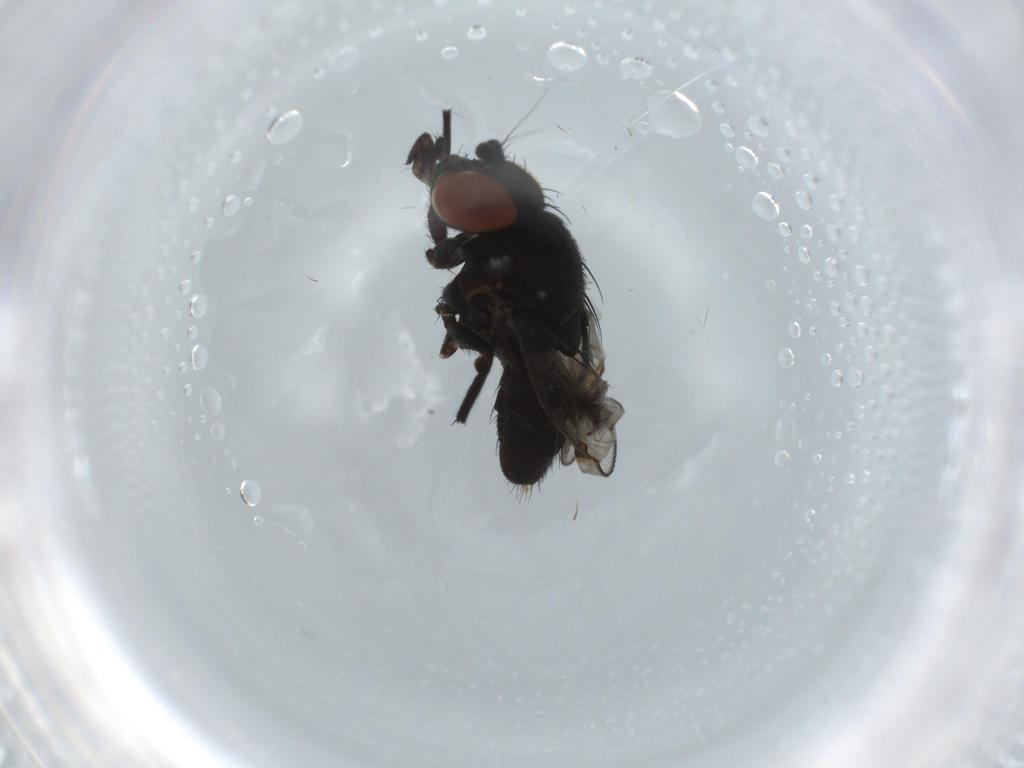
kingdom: Animalia
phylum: Arthropoda
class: Insecta
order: Diptera
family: Milichiidae
